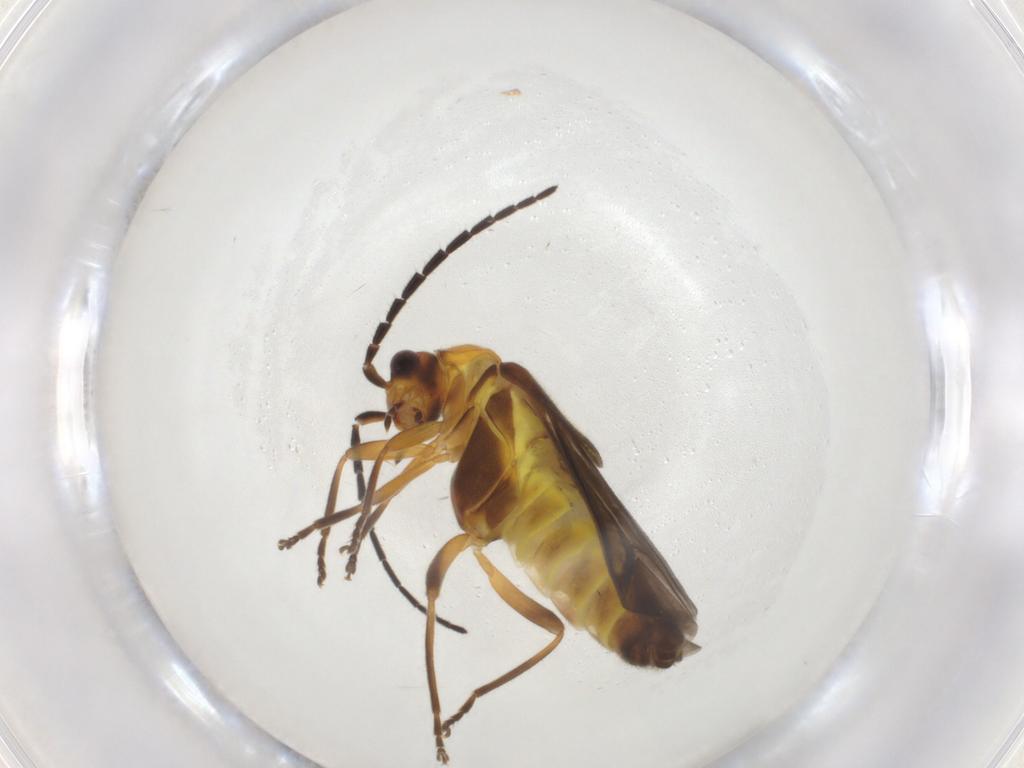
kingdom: Animalia
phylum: Arthropoda
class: Insecta
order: Coleoptera
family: Cantharidae
